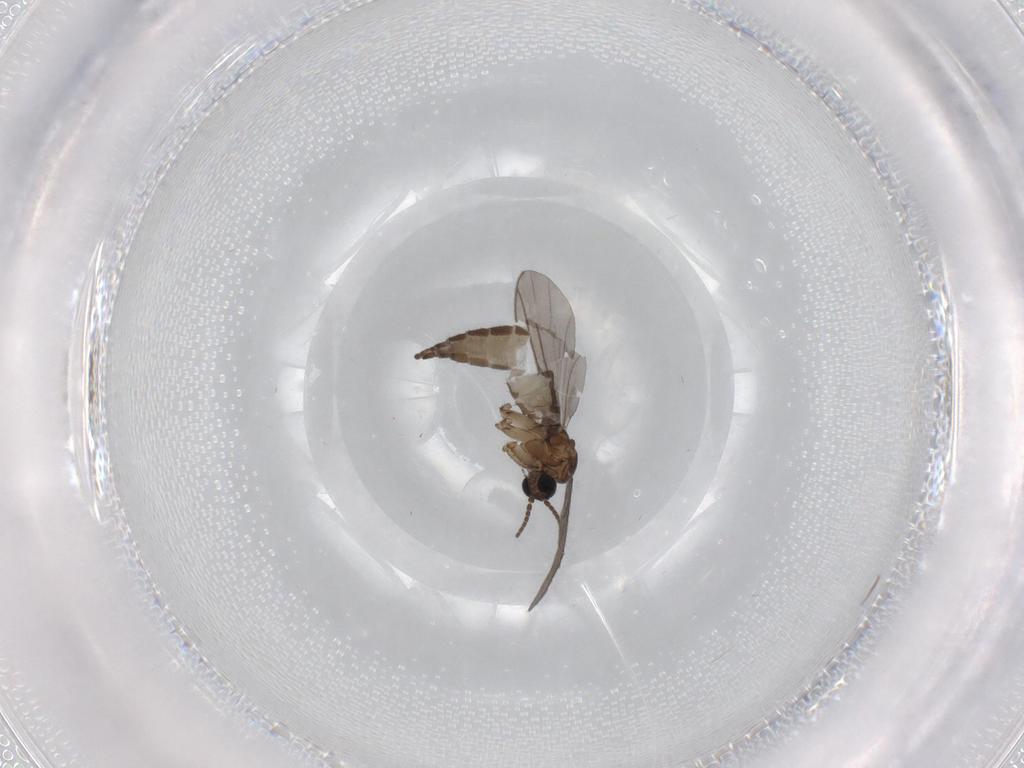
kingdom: Animalia
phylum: Arthropoda
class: Insecta
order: Diptera
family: Sciaridae
